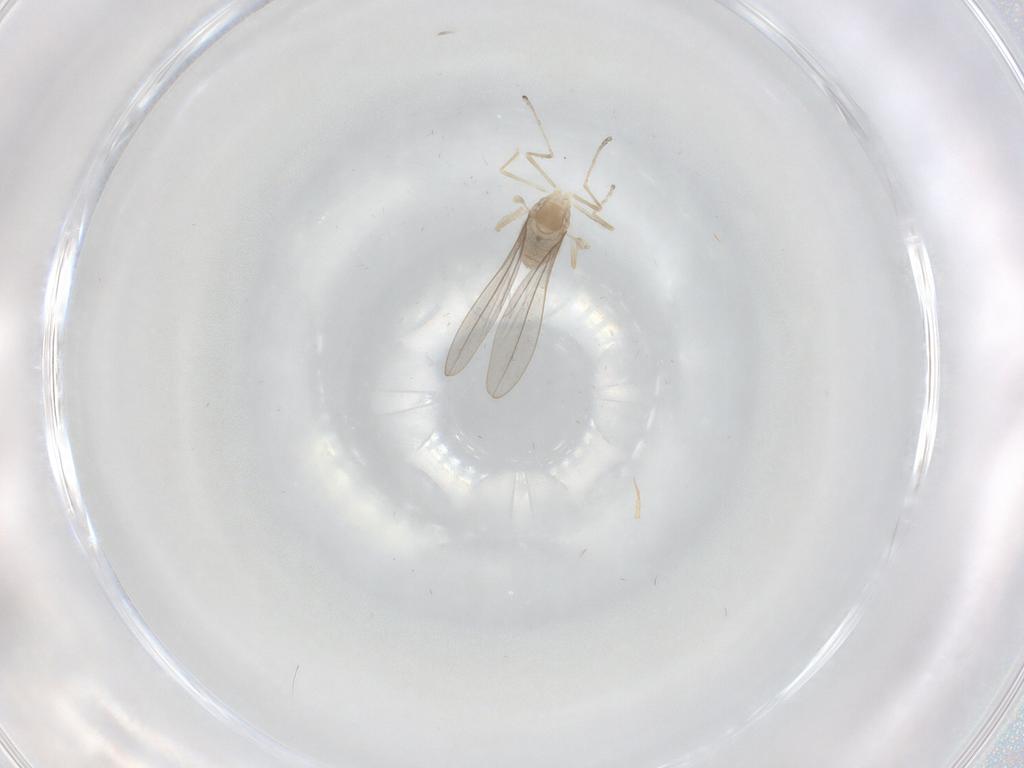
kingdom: Animalia
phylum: Arthropoda
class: Insecta
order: Diptera
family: Cecidomyiidae
